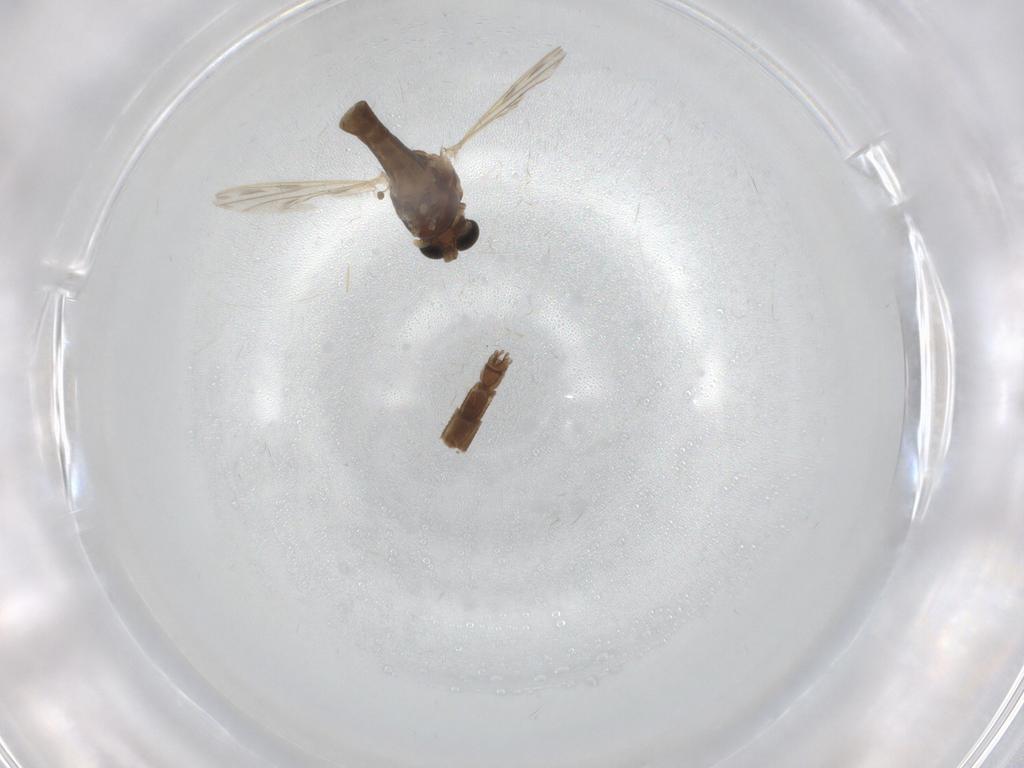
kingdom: Animalia
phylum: Arthropoda
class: Insecta
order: Diptera
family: Chironomidae
